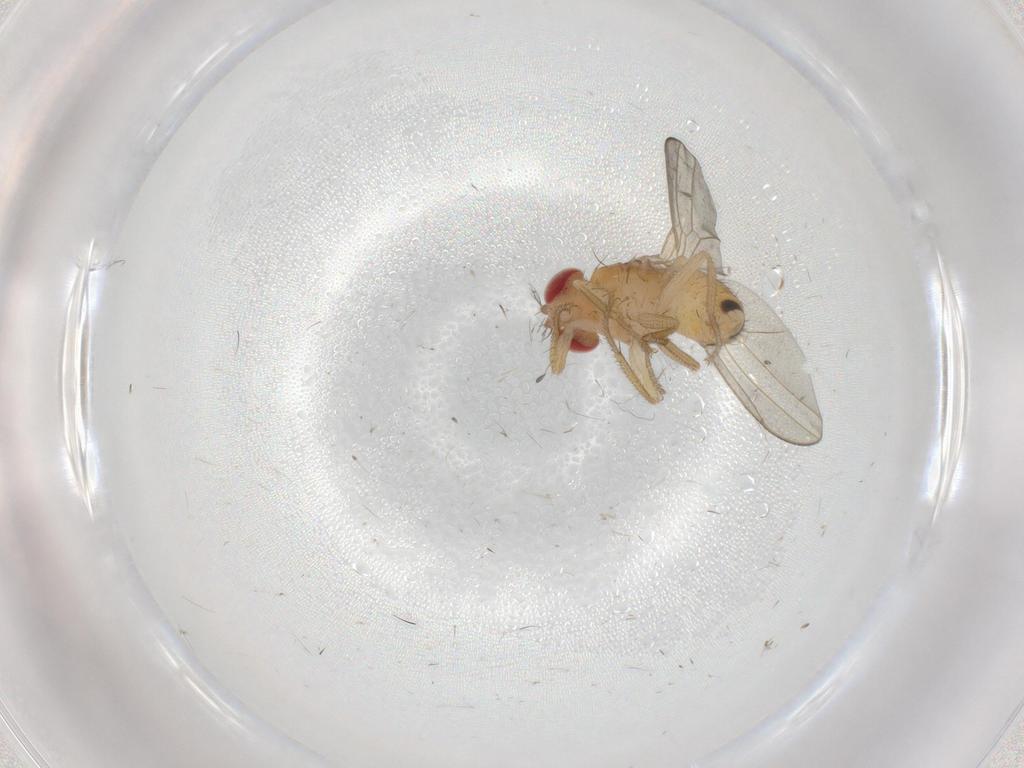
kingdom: Animalia
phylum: Arthropoda
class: Insecta
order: Diptera
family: Drosophilidae
